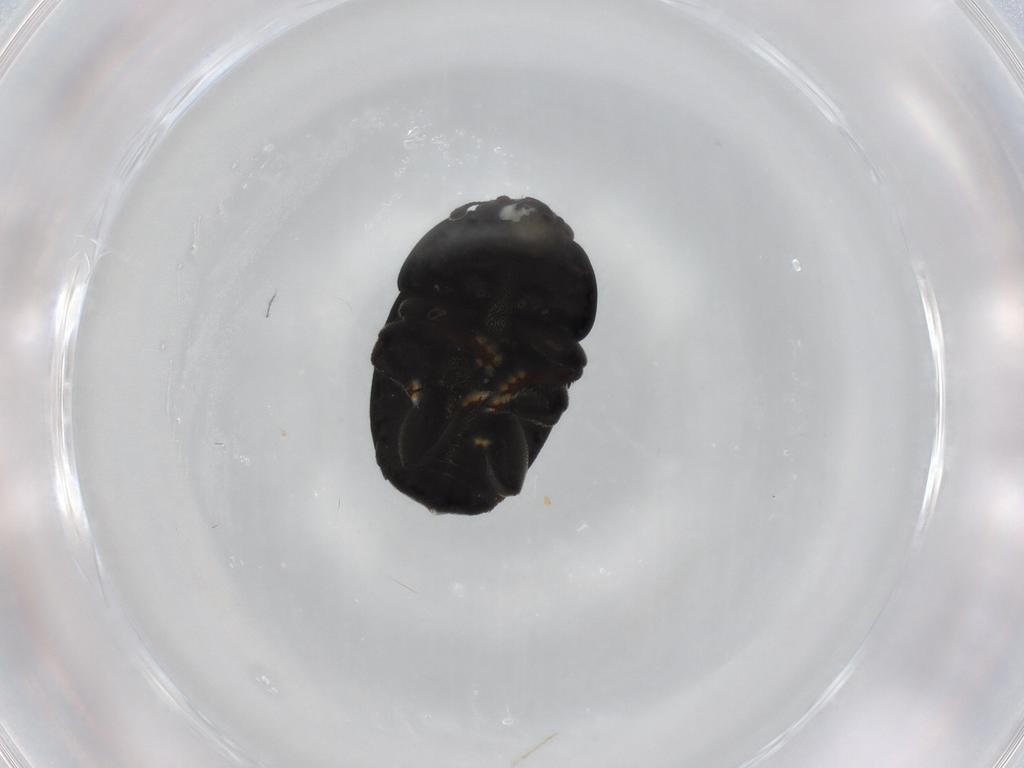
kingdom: Animalia
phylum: Arthropoda
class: Insecta
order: Coleoptera
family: Nitidulidae
